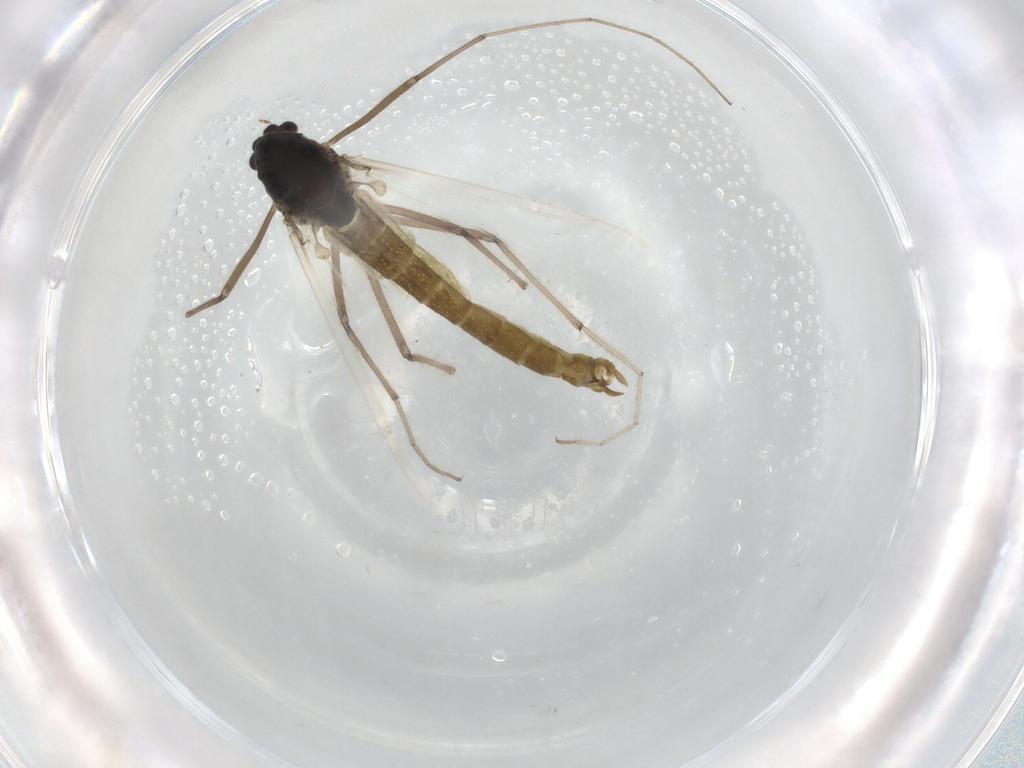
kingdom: Animalia
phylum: Arthropoda
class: Insecta
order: Diptera
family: Chironomidae
